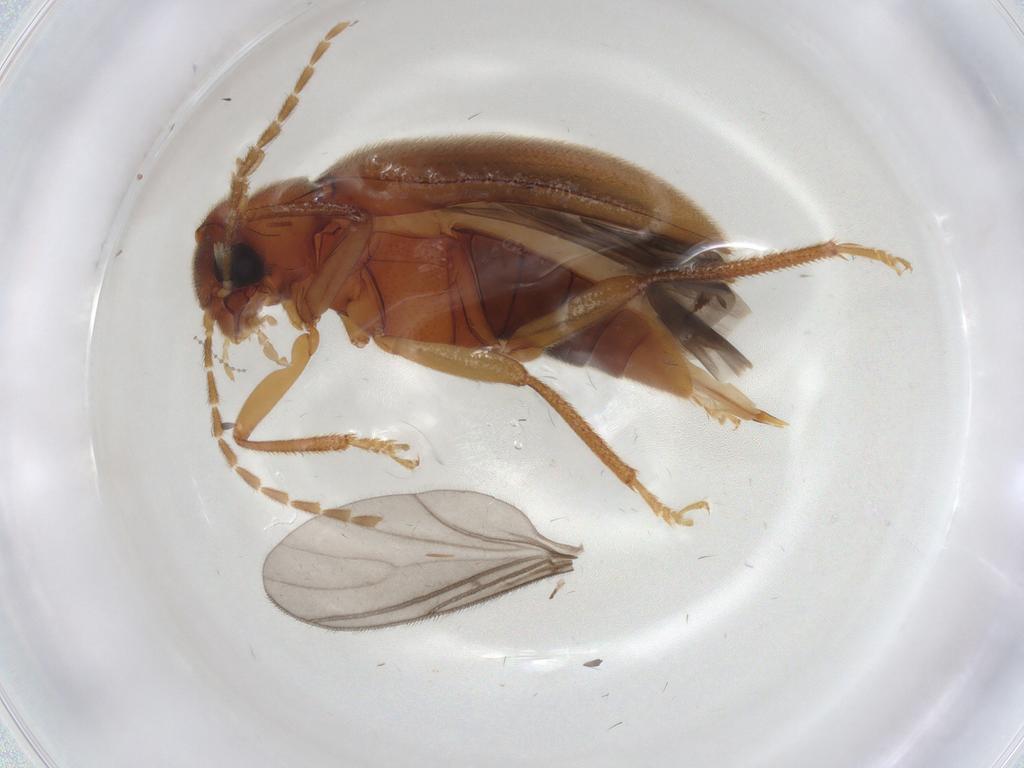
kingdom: Animalia
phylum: Arthropoda
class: Insecta
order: Coleoptera
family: Ptilodactylidae
